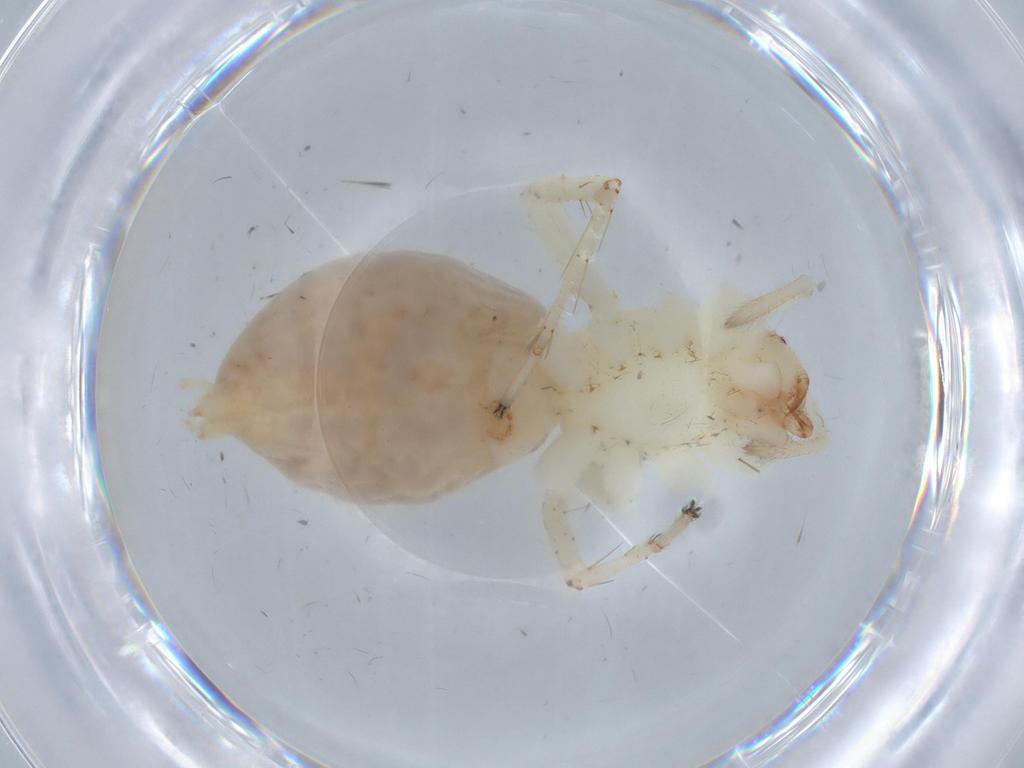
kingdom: Animalia
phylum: Arthropoda
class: Arachnida
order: Araneae
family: Anyphaenidae
